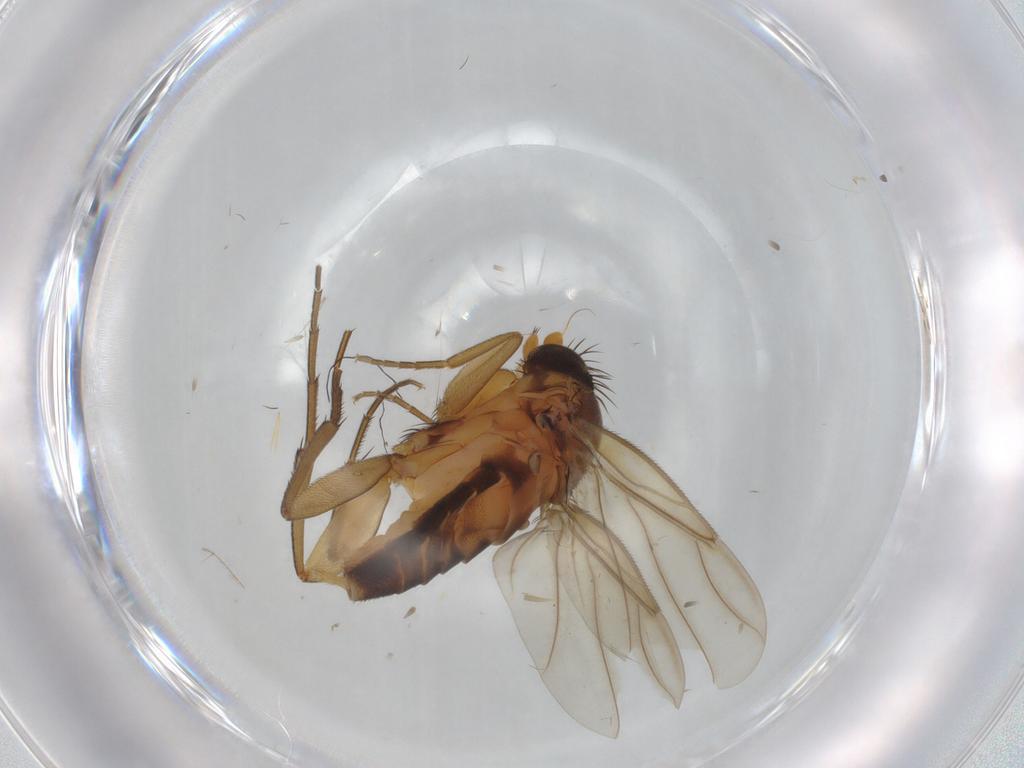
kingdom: Animalia
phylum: Arthropoda
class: Insecta
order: Diptera
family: Phoridae
